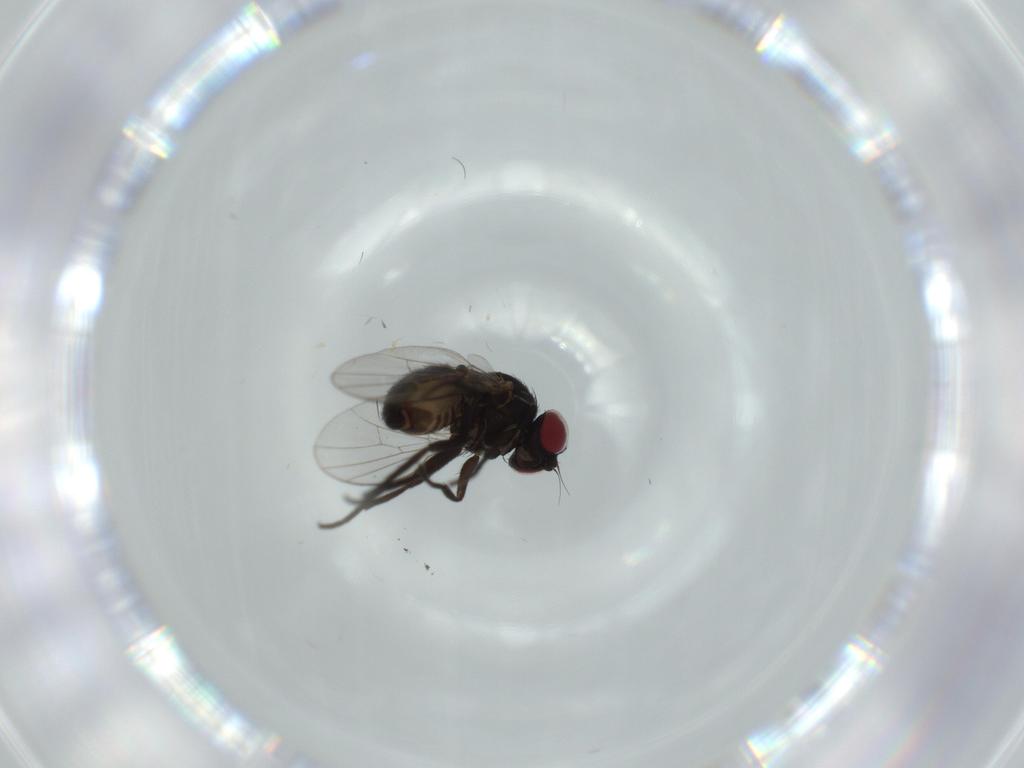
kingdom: Animalia
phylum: Arthropoda
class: Insecta
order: Diptera
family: Agromyzidae
